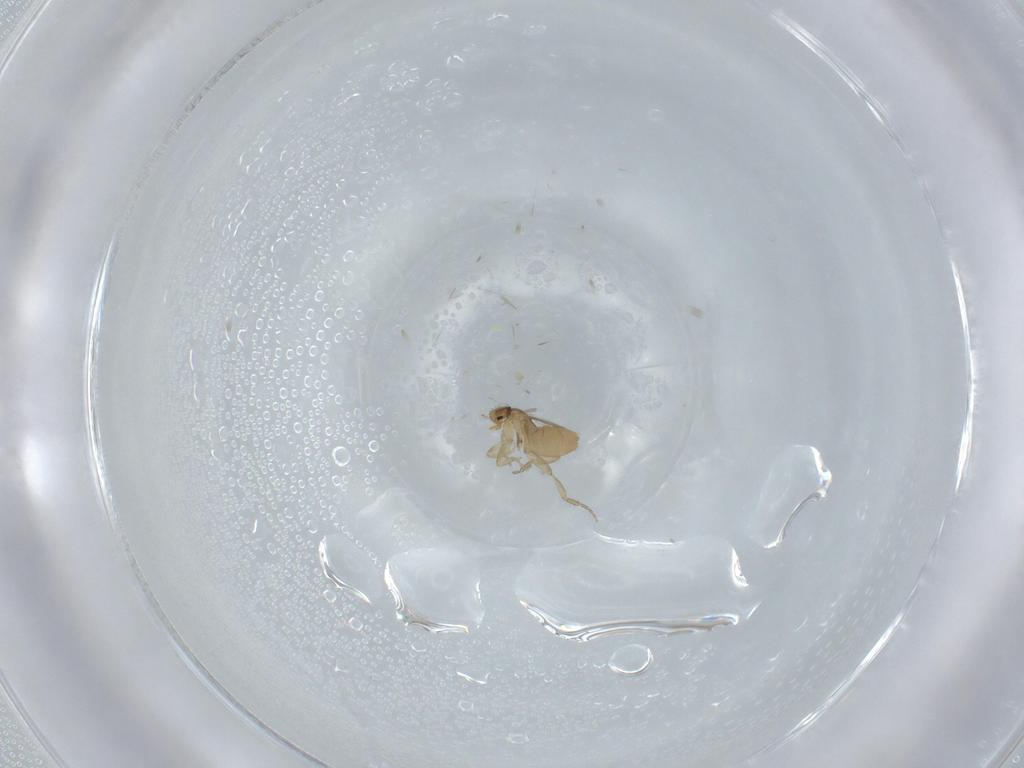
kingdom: Animalia
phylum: Arthropoda
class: Insecta
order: Diptera
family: Phoridae
